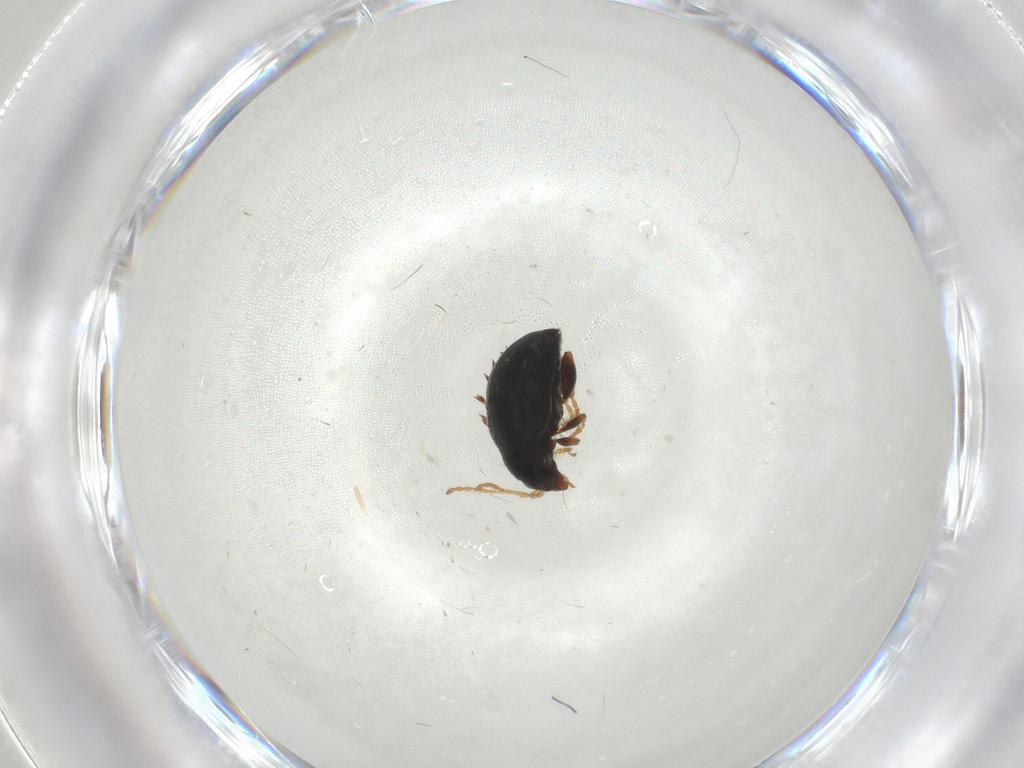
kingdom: Animalia
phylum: Arthropoda
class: Insecta
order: Coleoptera
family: Chrysomelidae
